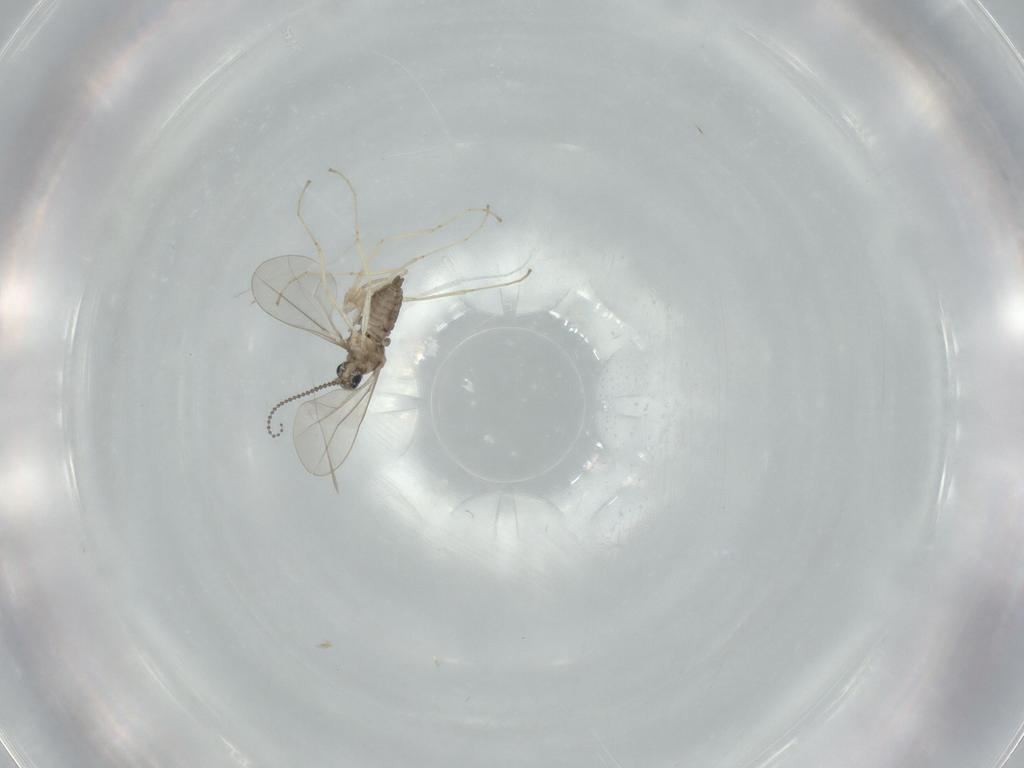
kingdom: Animalia
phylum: Arthropoda
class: Insecta
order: Diptera
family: Cecidomyiidae
